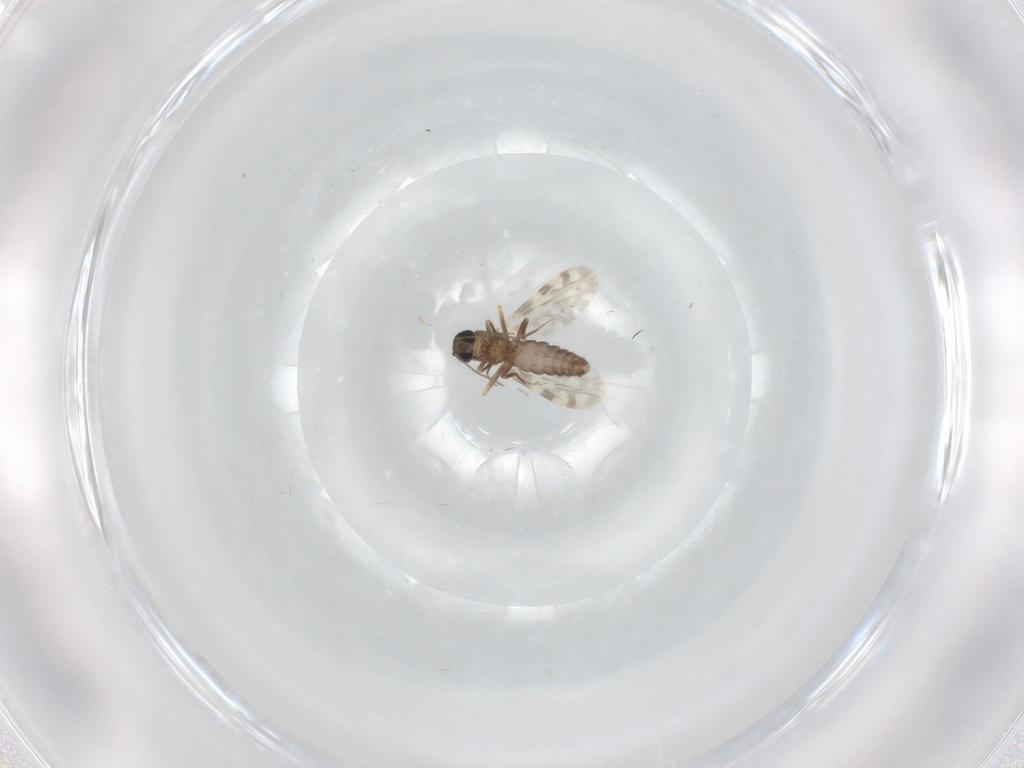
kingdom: Animalia
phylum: Arthropoda
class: Insecta
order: Diptera
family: Ceratopogonidae
